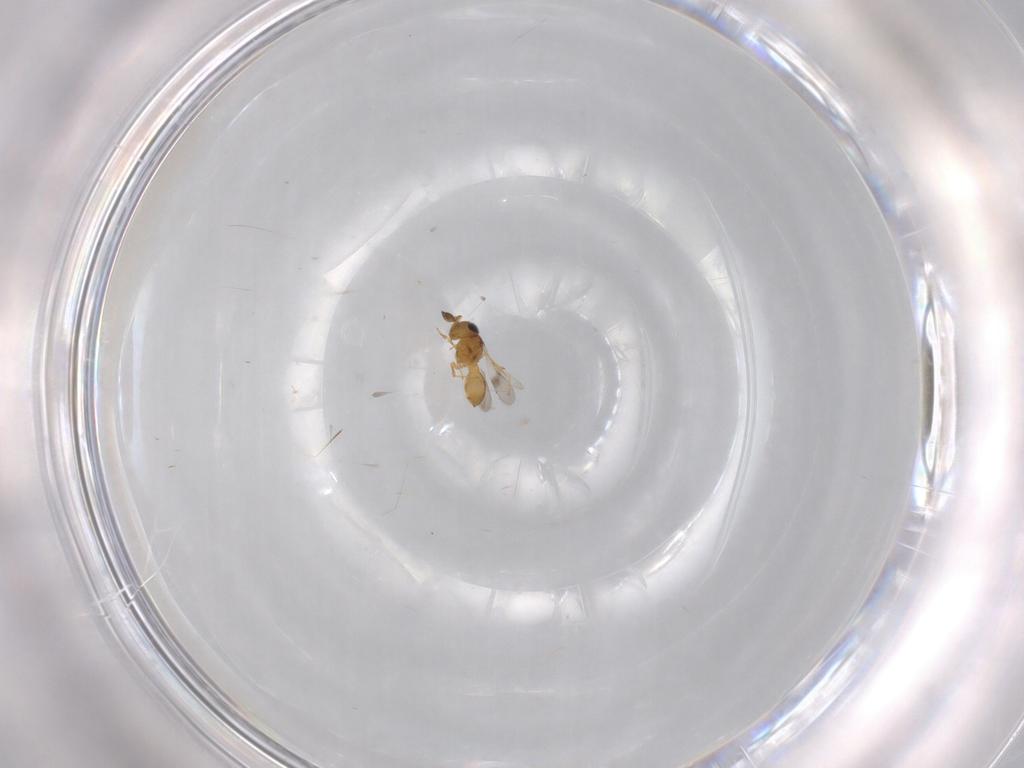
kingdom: Animalia
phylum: Arthropoda
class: Insecta
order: Hymenoptera
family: Scelionidae
